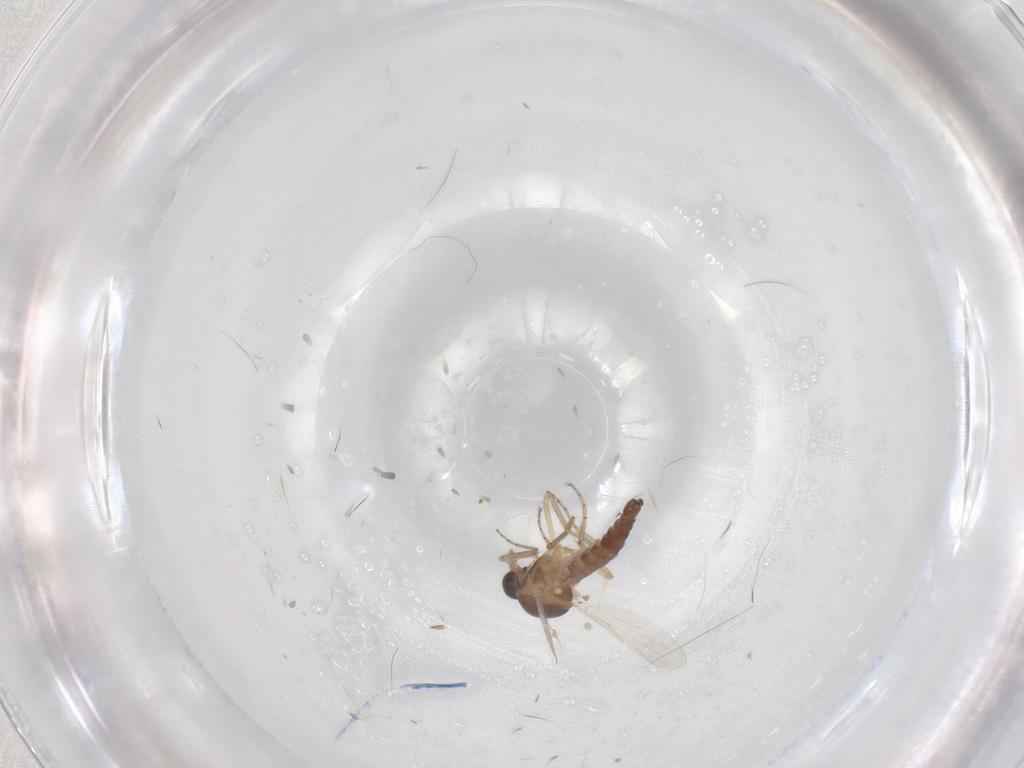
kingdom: Animalia
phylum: Arthropoda
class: Insecta
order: Diptera
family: Ceratopogonidae
